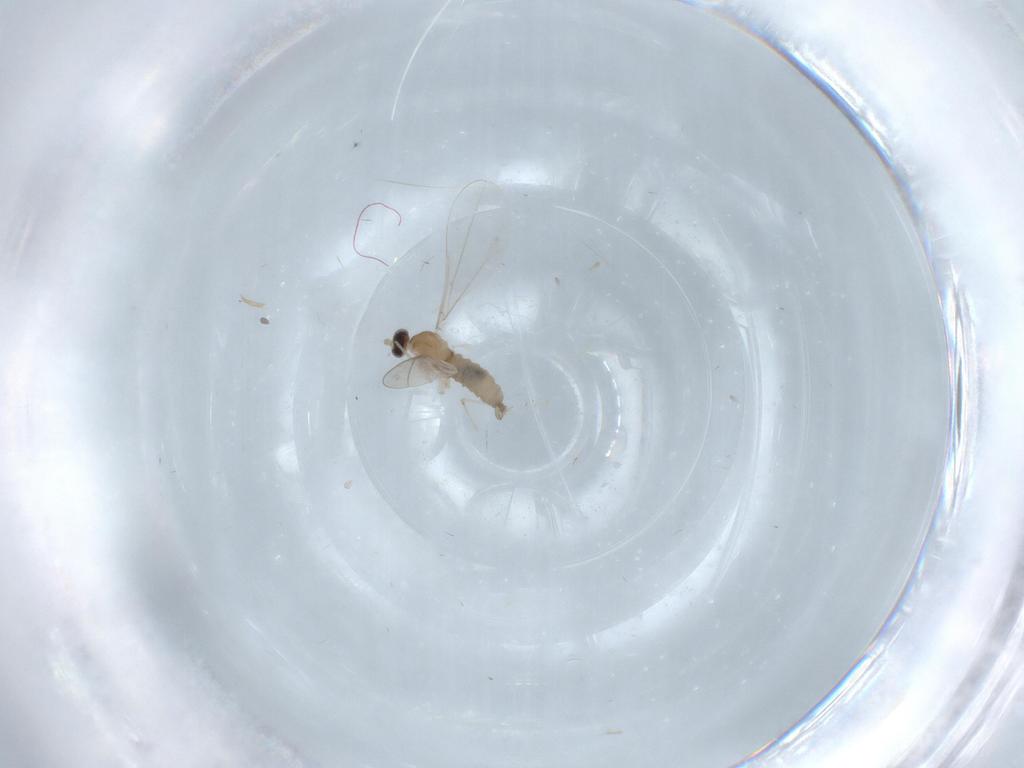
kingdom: Animalia
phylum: Arthropoda
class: Insecta
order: Diptera
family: Cecidomyiidae
